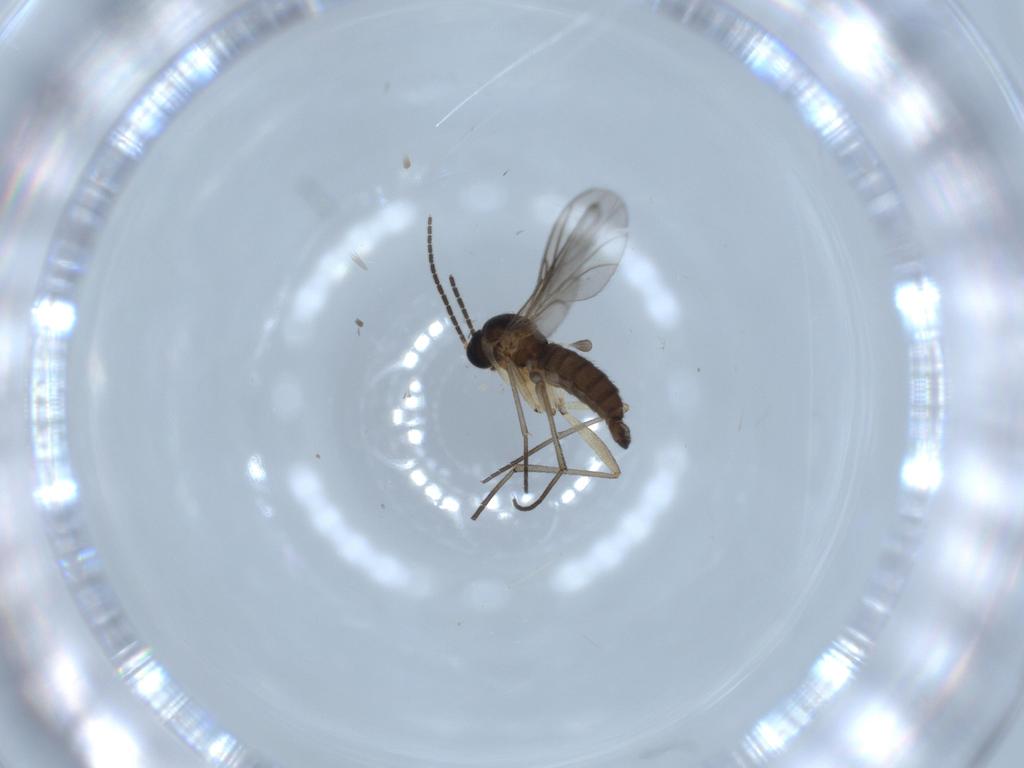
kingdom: Animalia
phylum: Arthropoda
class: Insecta
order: Diptera
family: Sciaridae
